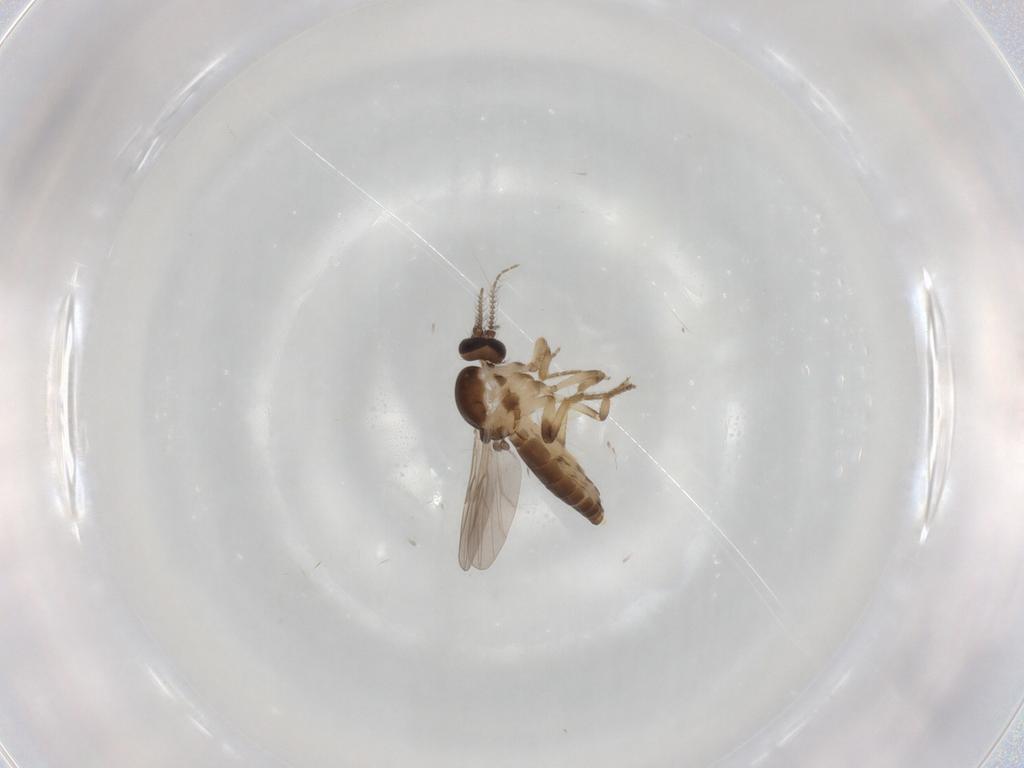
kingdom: Animalia
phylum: Arthropoda
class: Insecta
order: Diptera
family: Ceratopogonidae
